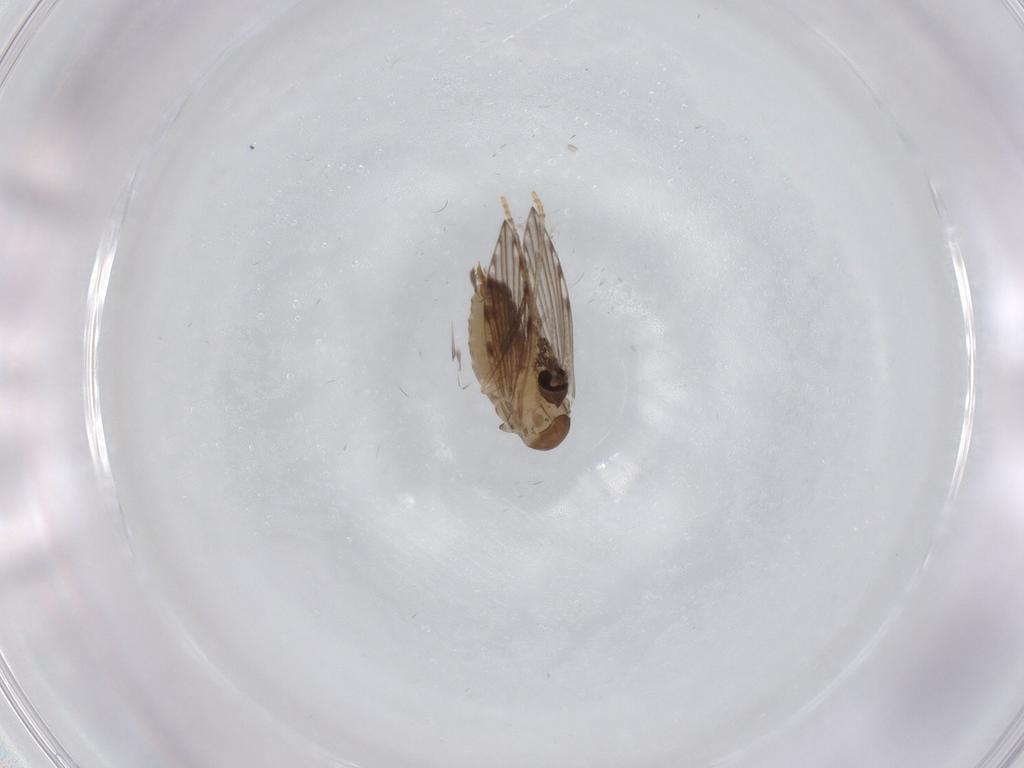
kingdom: Animalia
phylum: Arthropoda
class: Insecta
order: Diptera
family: Psychodidae
